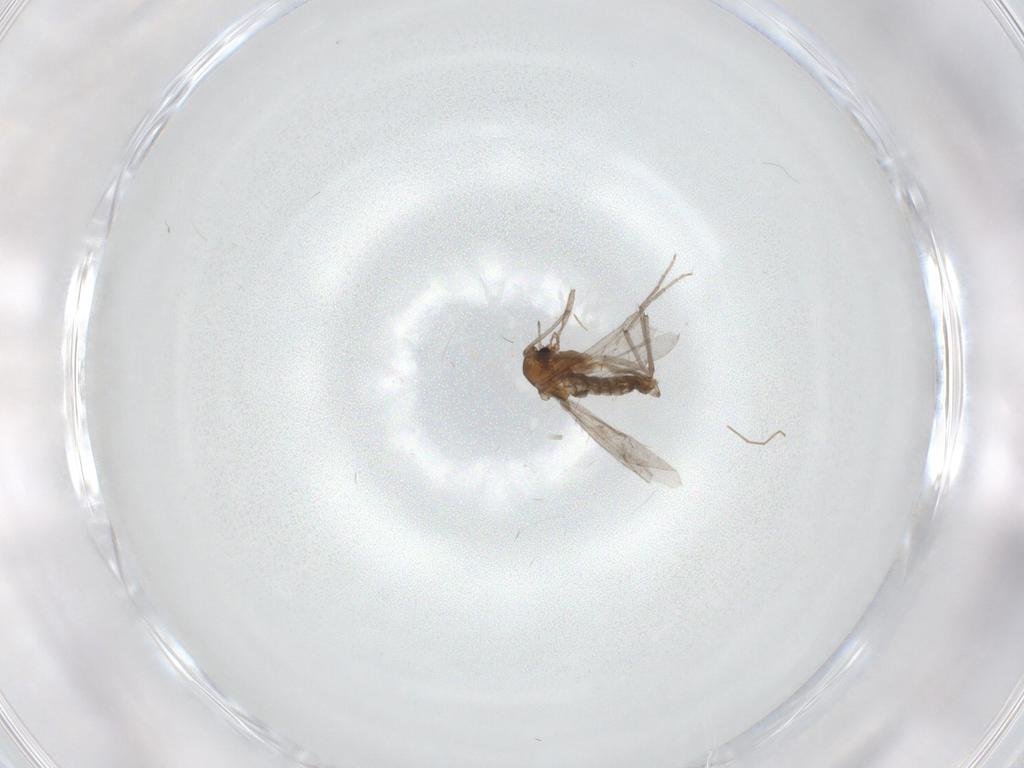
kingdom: Animalia
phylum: Arthropoda
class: Insecta
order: Diptera
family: Chironomidae
